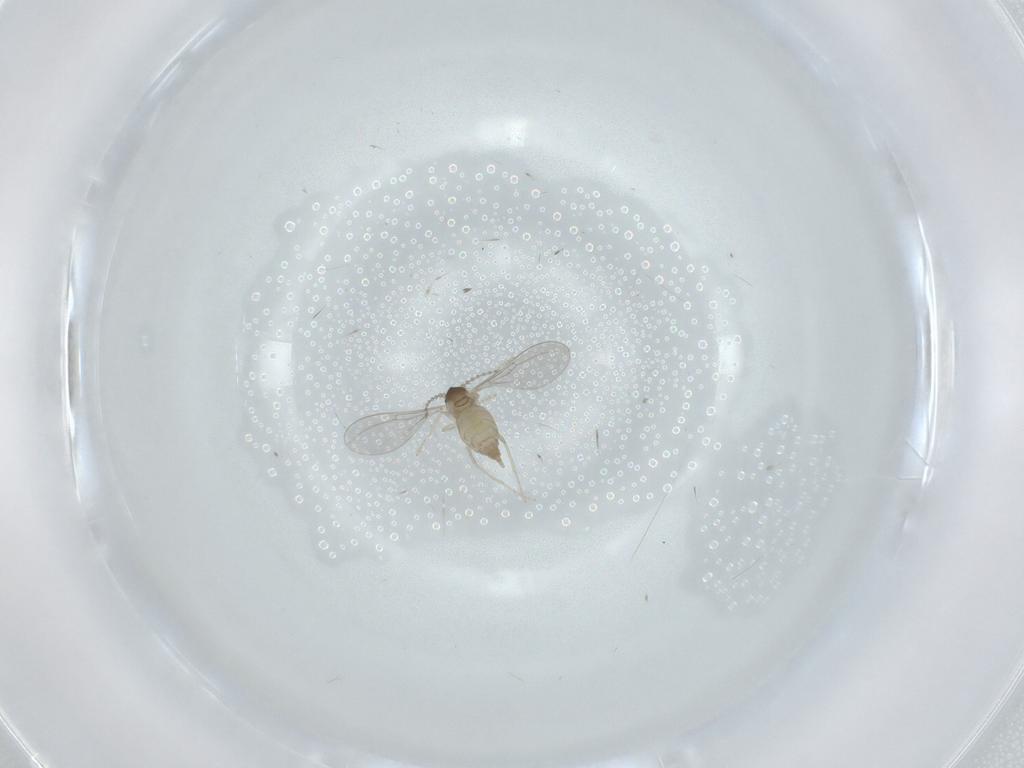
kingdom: Animalia
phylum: Arthropoda
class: Insecta
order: Diptera
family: Cecidomyiidae
